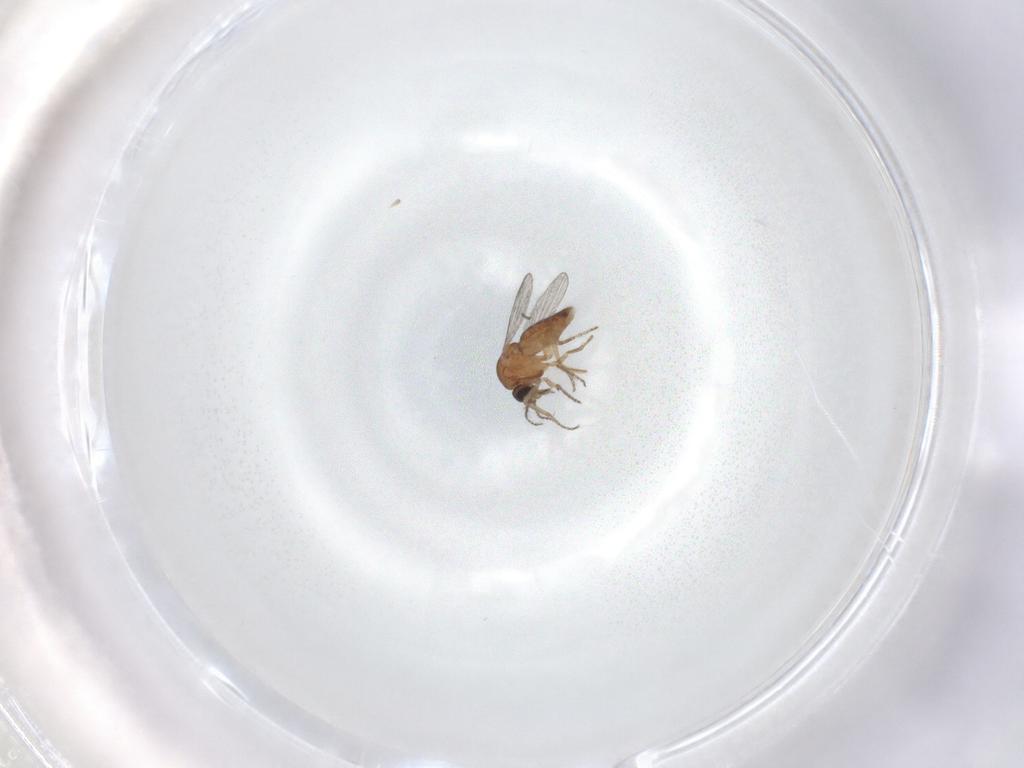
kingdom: Animalia
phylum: Arthropoda
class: Insecta
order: Diptera
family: Ceratopogonidae
